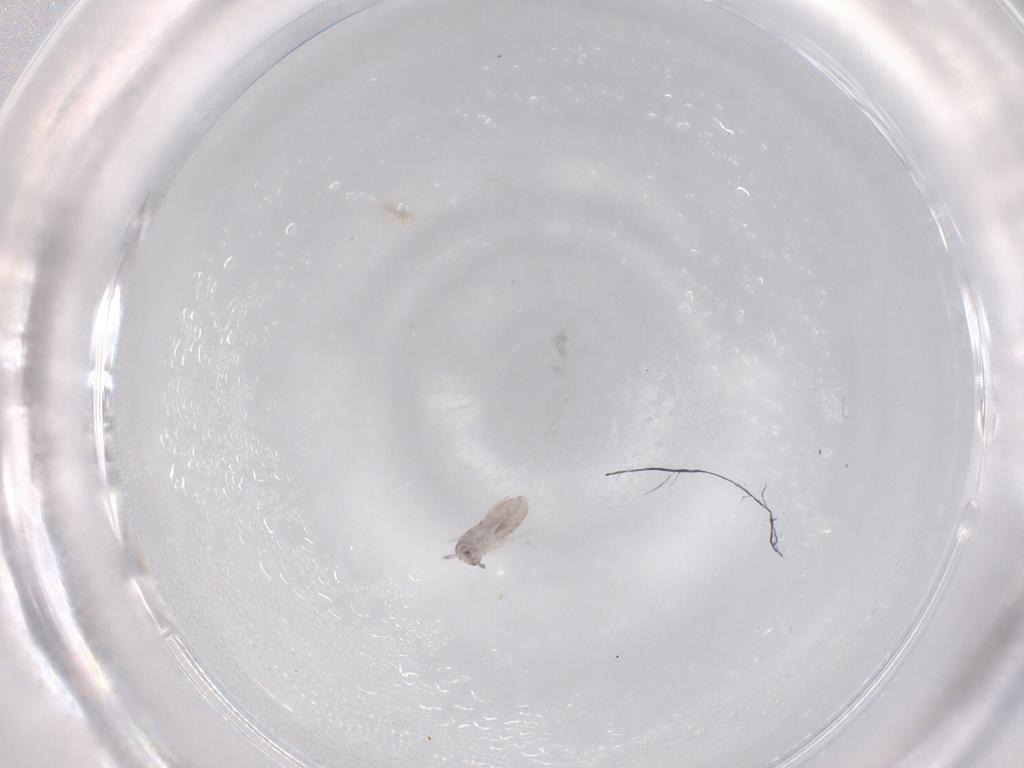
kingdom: Animalia
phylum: Arthropoda
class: Collembola
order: Entomobryomorpha
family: Entomobryidae
